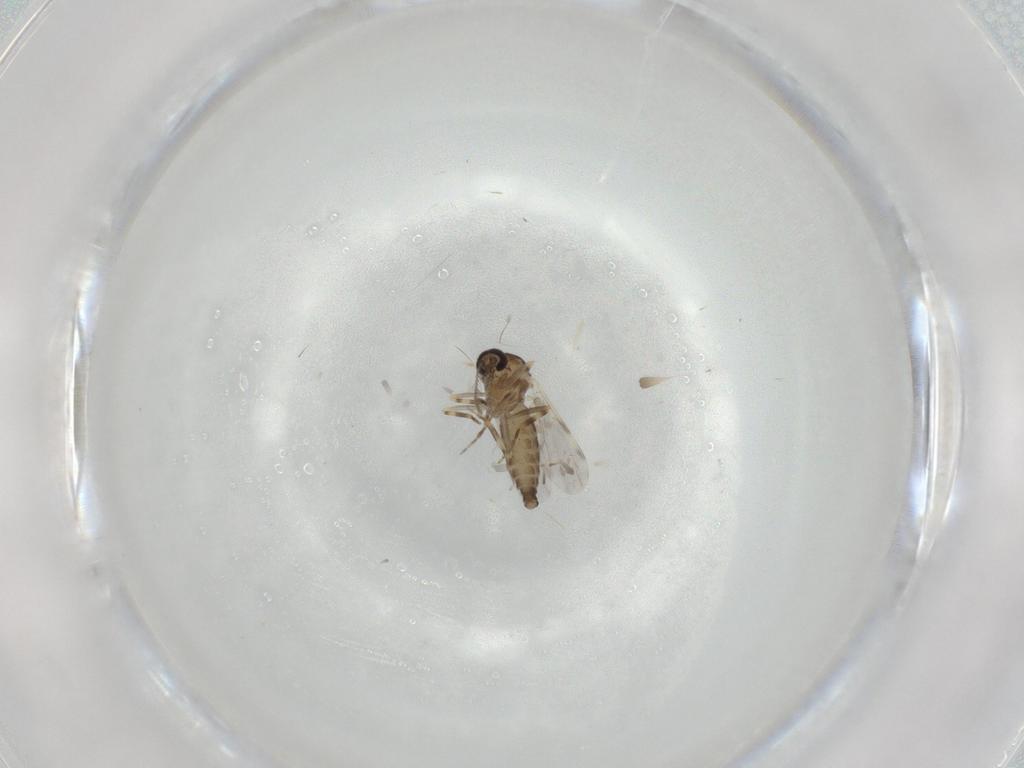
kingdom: Animalia
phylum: Arthropoda
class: Insecta
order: Diptera
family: Ceratopogonidae
